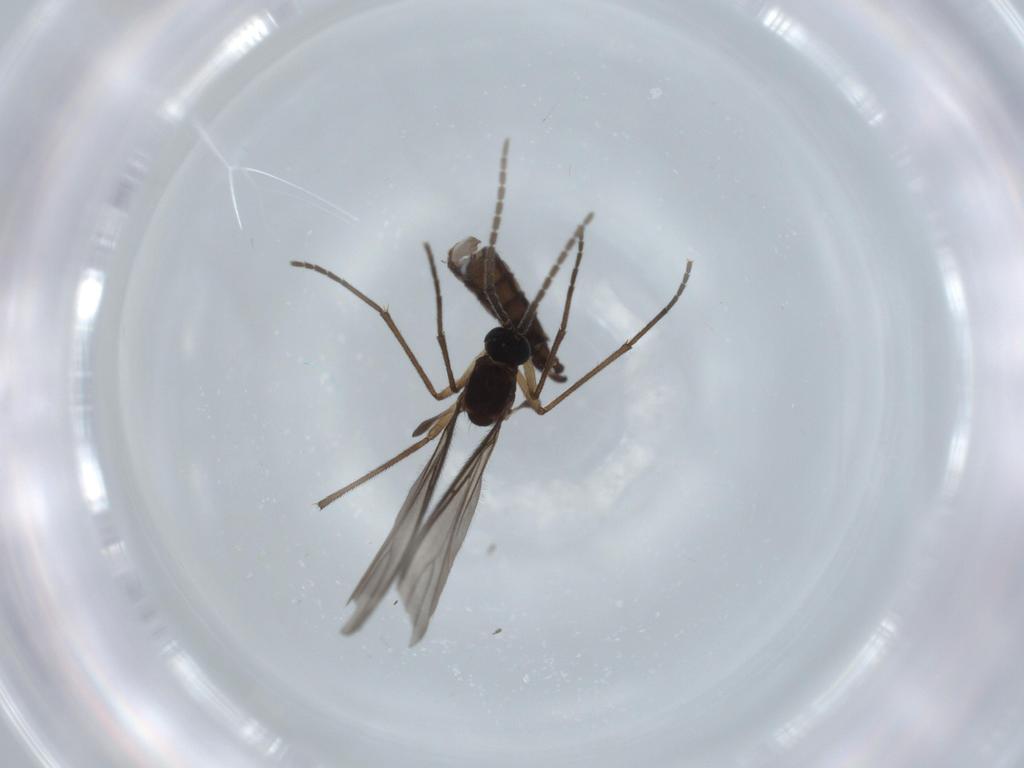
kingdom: Animalia
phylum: Arthropoda
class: Insecta
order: Diptera
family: Sciaridae
